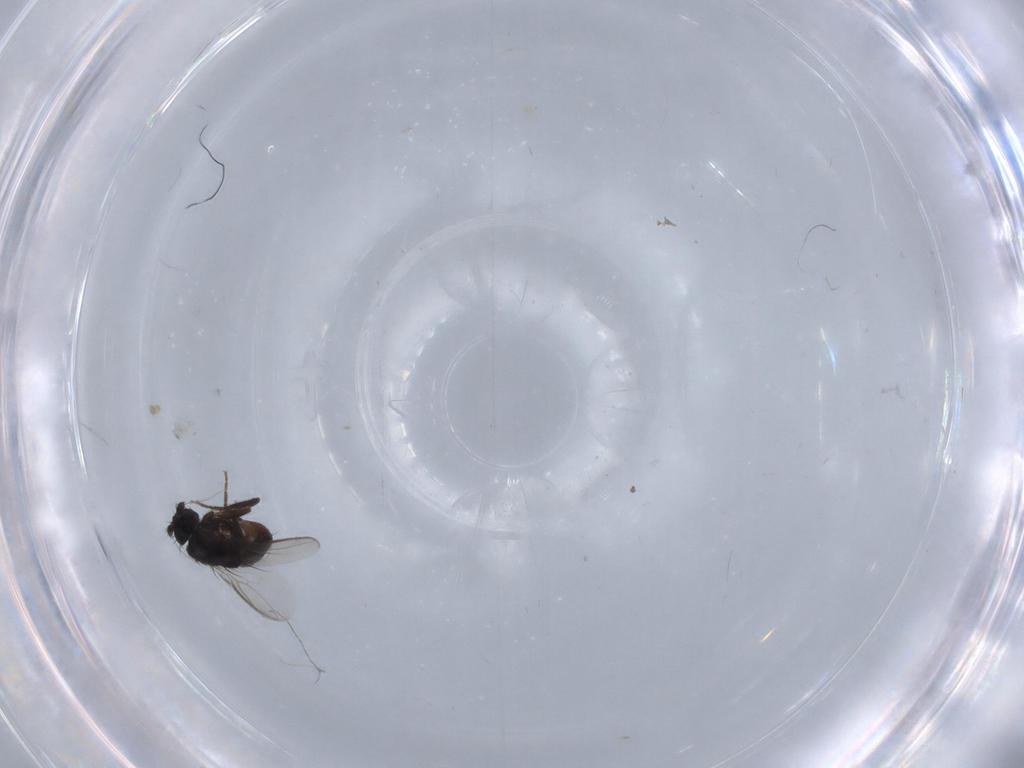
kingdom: Animalia
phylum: Arthropoda
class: Insecta
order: Diptera
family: Sphaeroceridae
